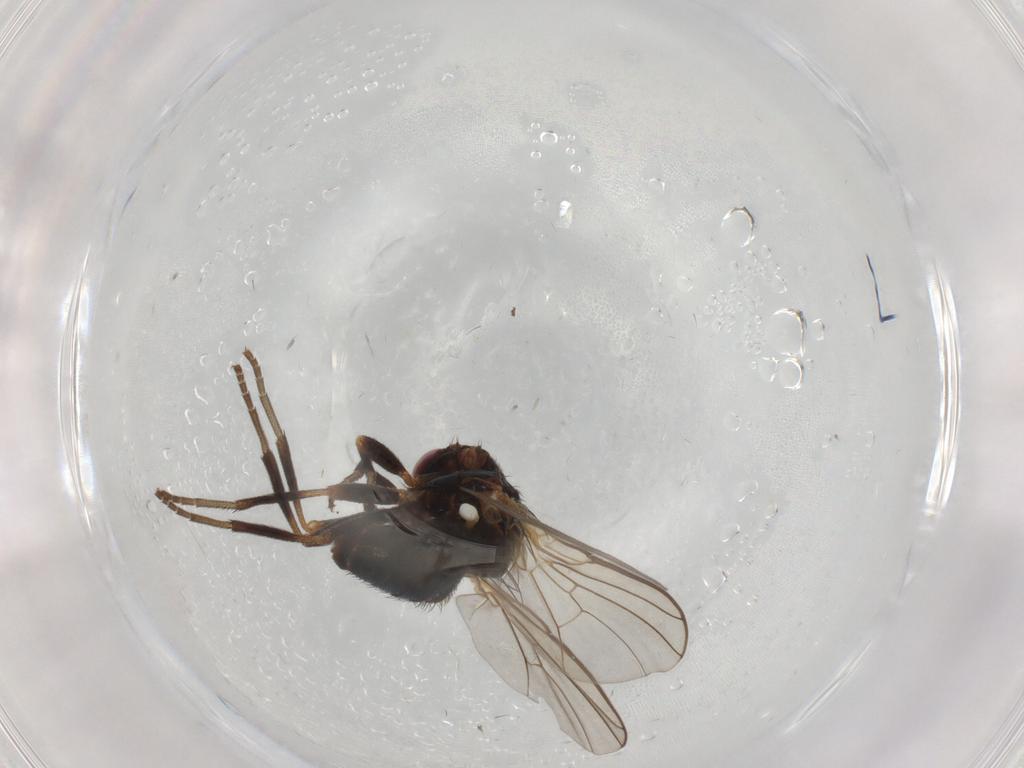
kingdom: Animalia
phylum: Arthropoda
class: Insecta
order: Diptera
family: Agromyzidae
